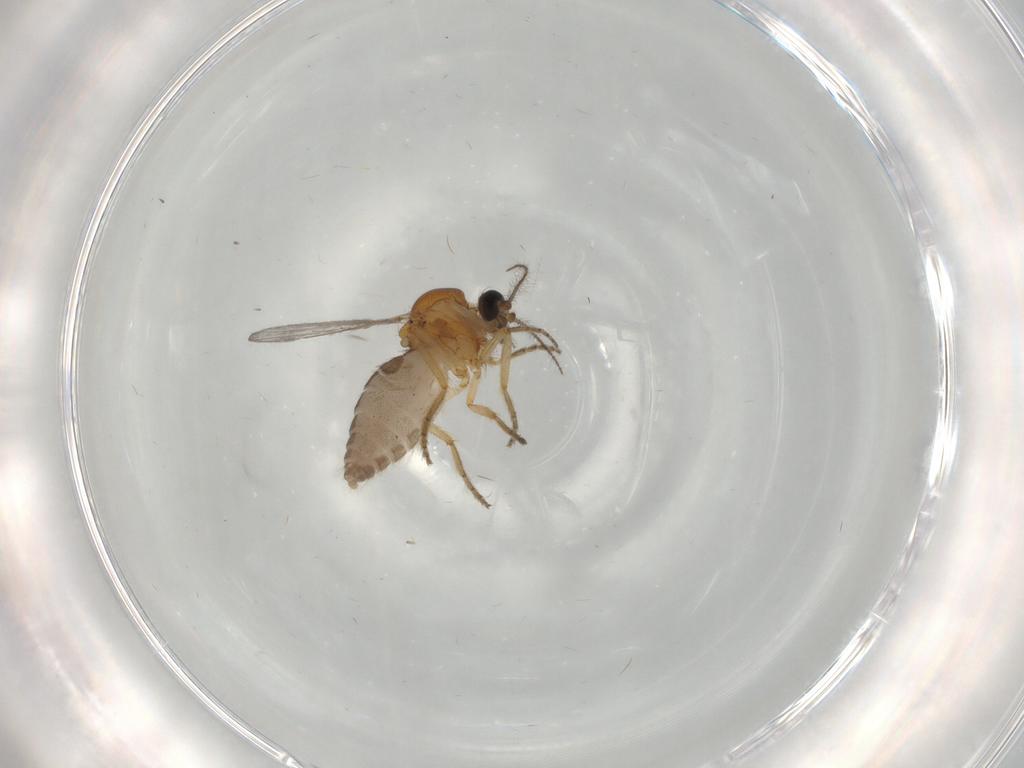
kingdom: Animalia
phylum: Arthropoda
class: Insecta
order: Diptera
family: Ceratopogonidae
